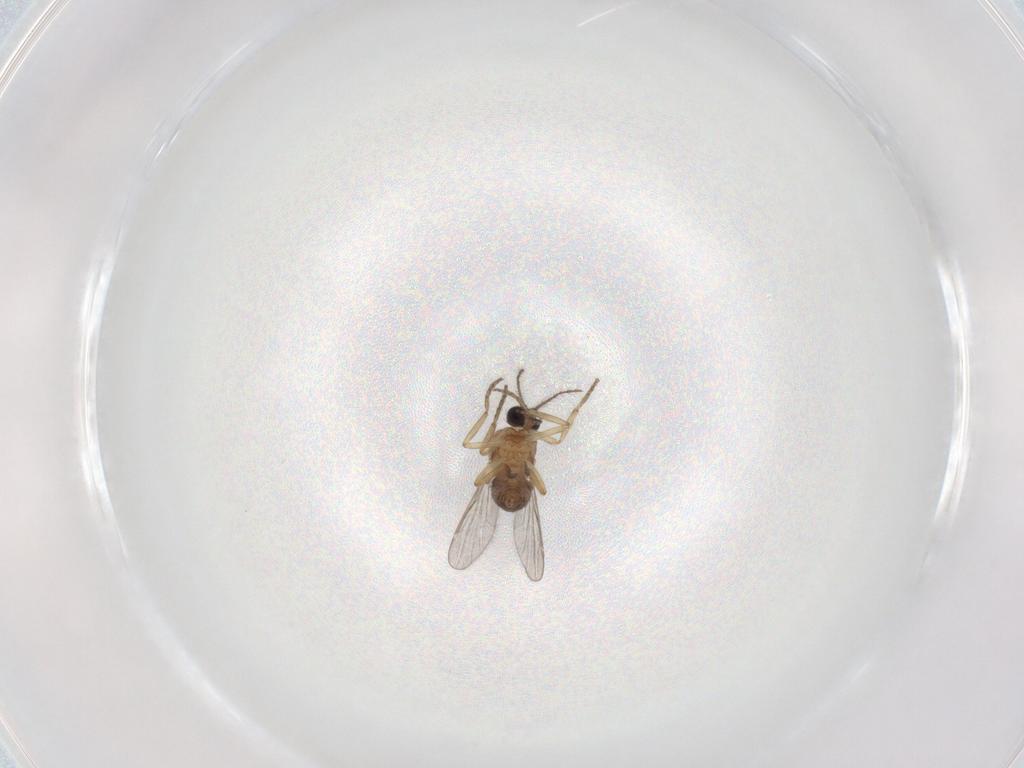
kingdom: Animalia
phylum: Arthropoda
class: Insecta
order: Diptera
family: Ceratopogonidae
